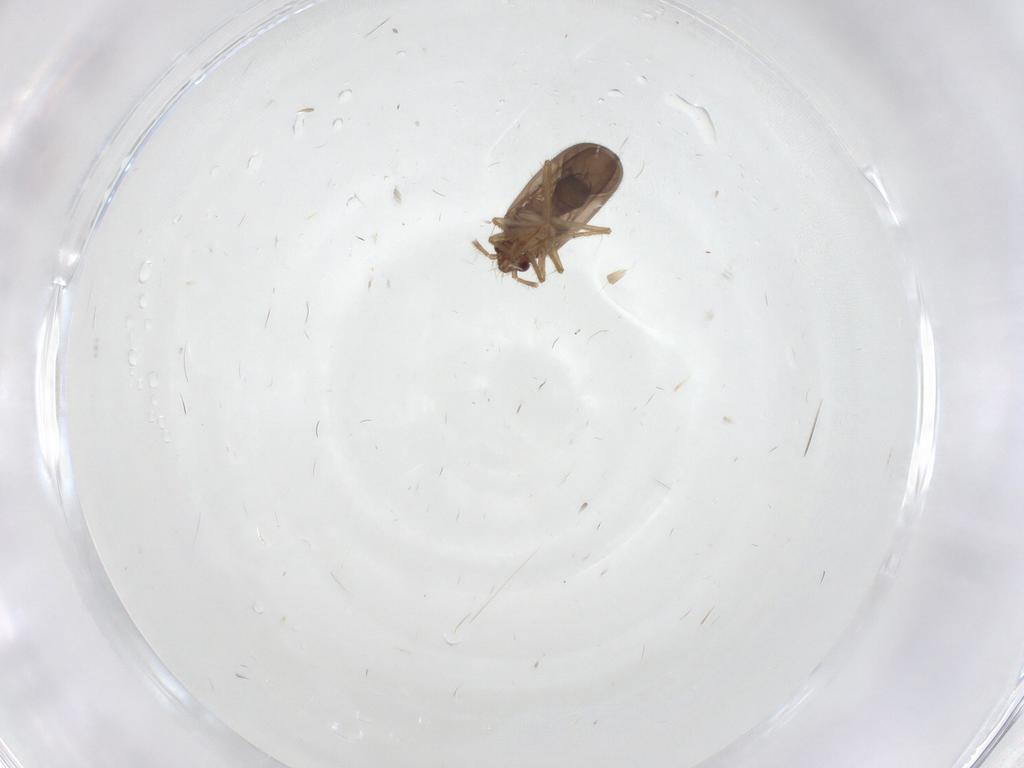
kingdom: Animalia
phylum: Arthropoda
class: Insecta
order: Hemiptera
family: Ceratocombidae
